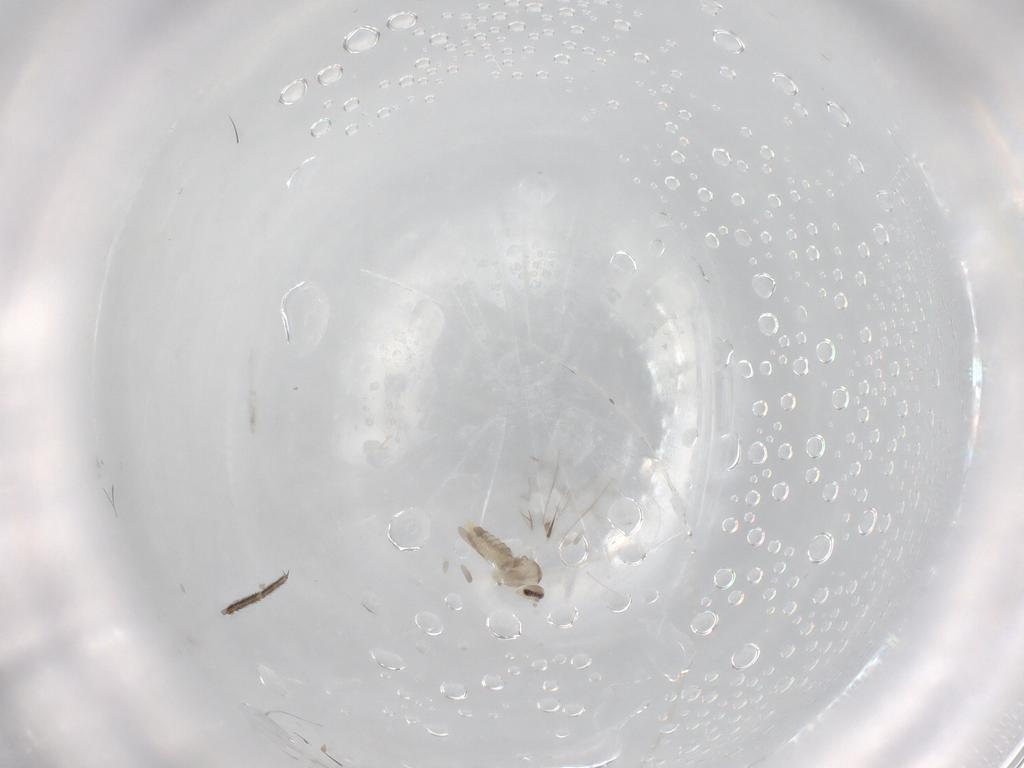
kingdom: Animalia
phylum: Arthropoda
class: Insecta
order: Diptera
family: Cecidomyiidae
